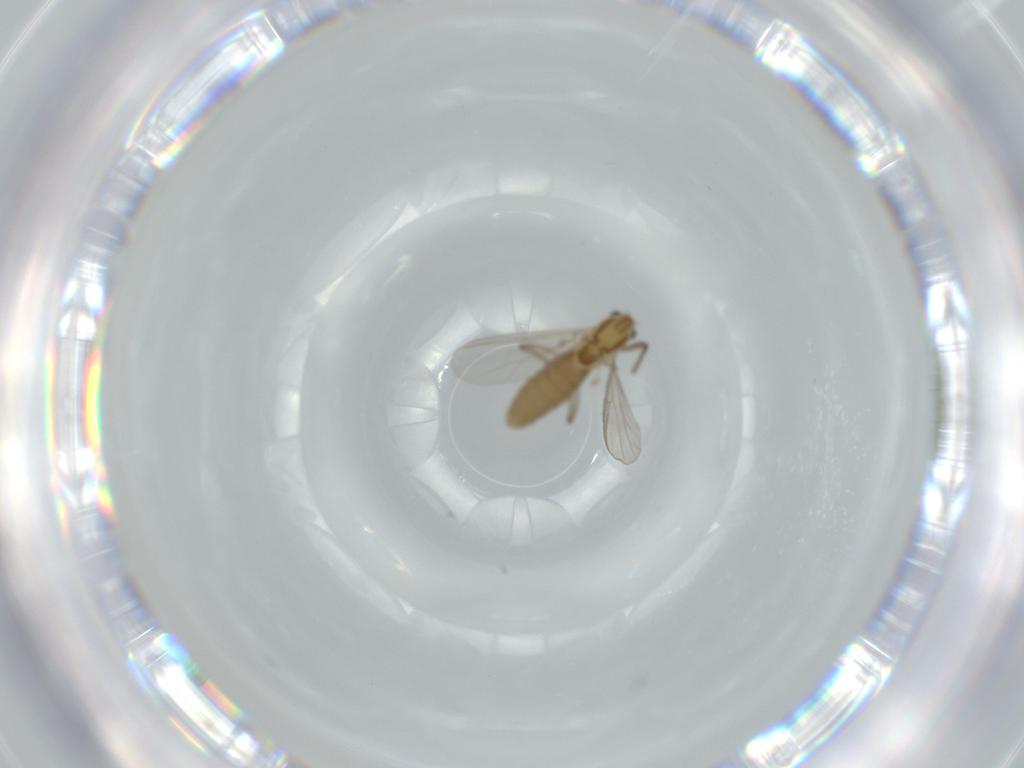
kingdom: Animalia
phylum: Arthropoda
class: Insecta
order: Diptera
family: Chironomidae
